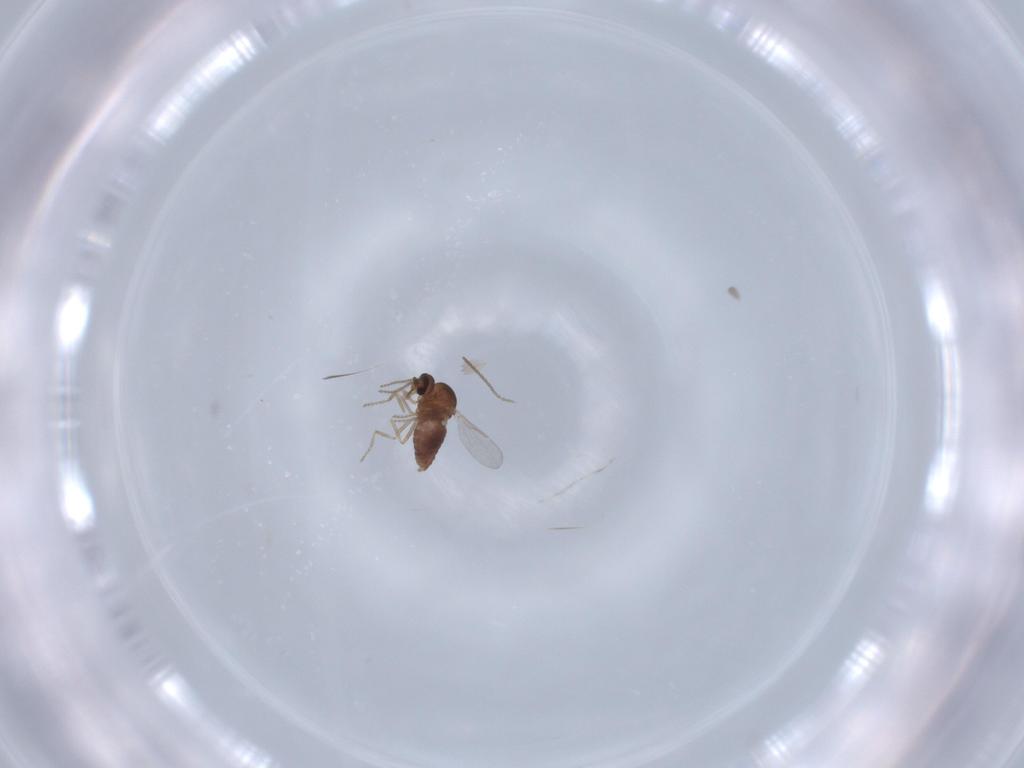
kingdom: Animalia
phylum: Arthropoda
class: Insecta
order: Diptera
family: Ceratopogonidae
